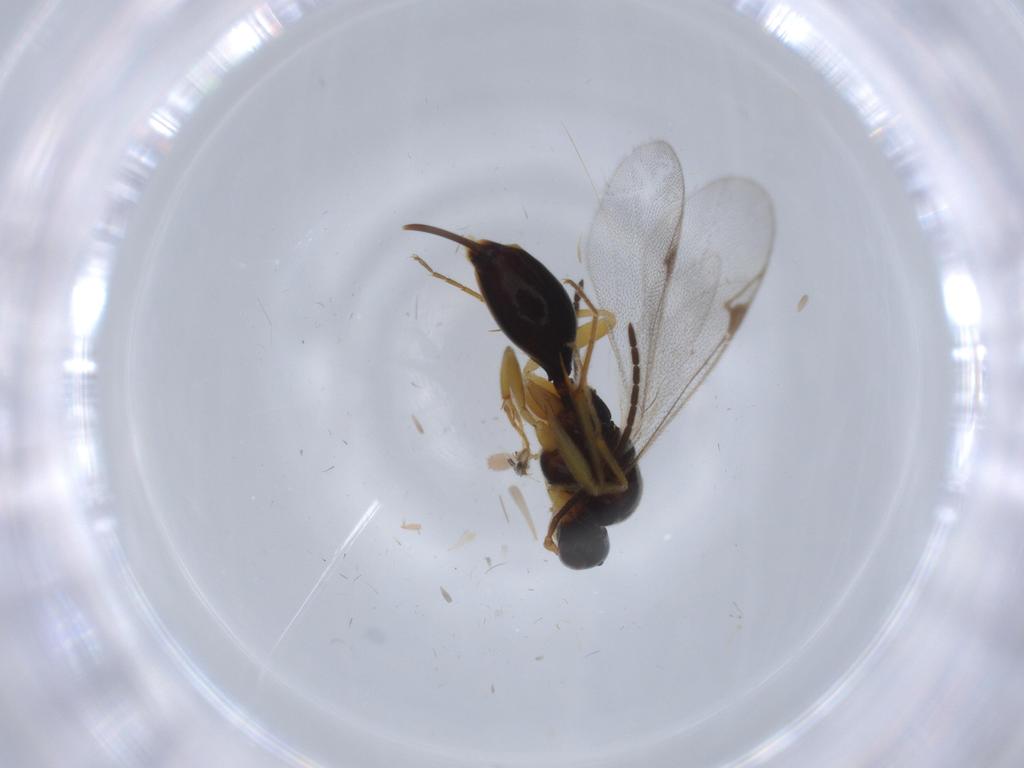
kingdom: Animalia
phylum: Arthropoda
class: Insecta
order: Hymenoptera
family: Ichneumonidae
